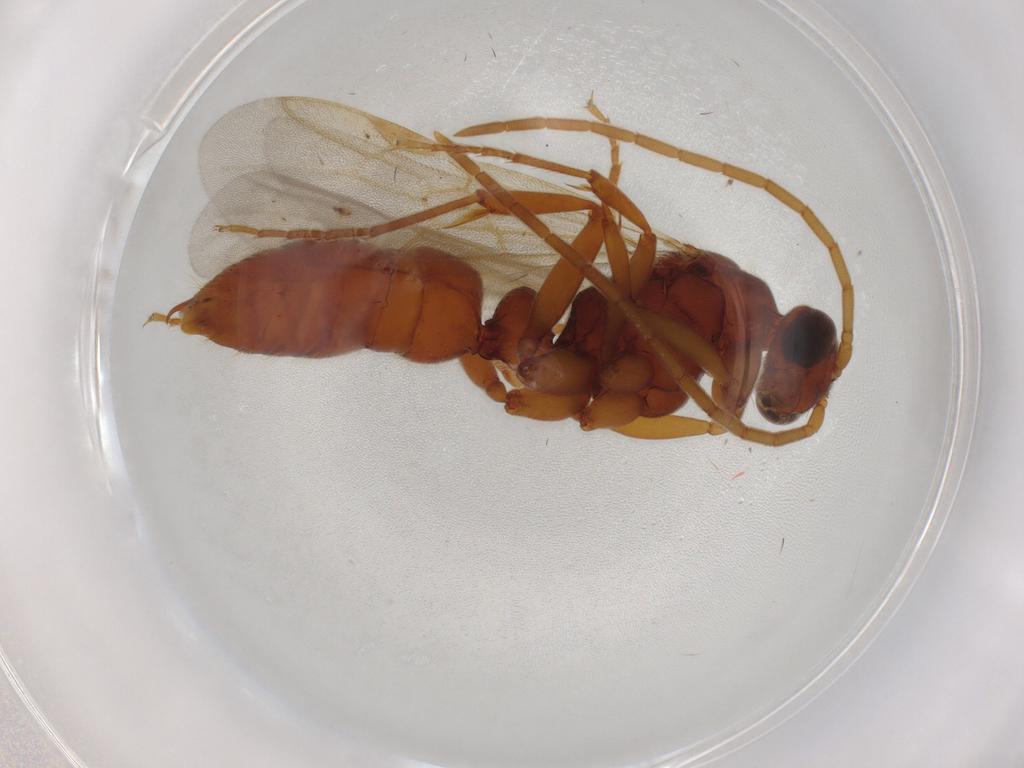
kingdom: Animalia
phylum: Arthropoda
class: Insecta
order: Hymenoptera
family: Formicidae
